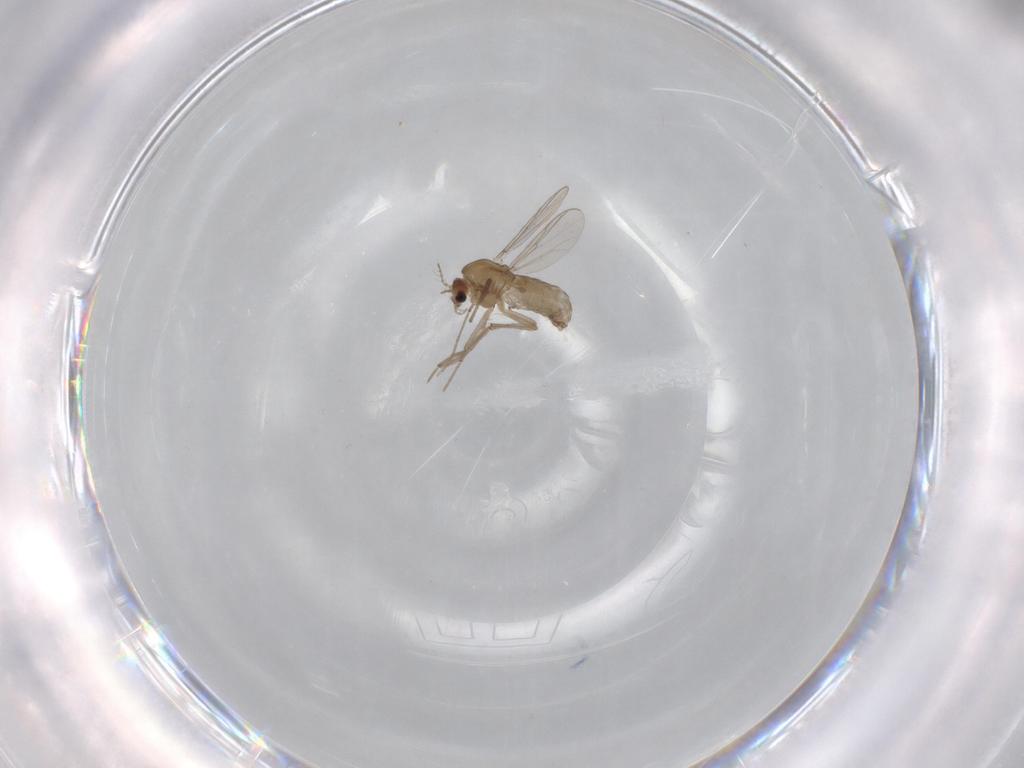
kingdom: Animalia
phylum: Arthropoda
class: Insecta
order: Diptera
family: Chironomidae
